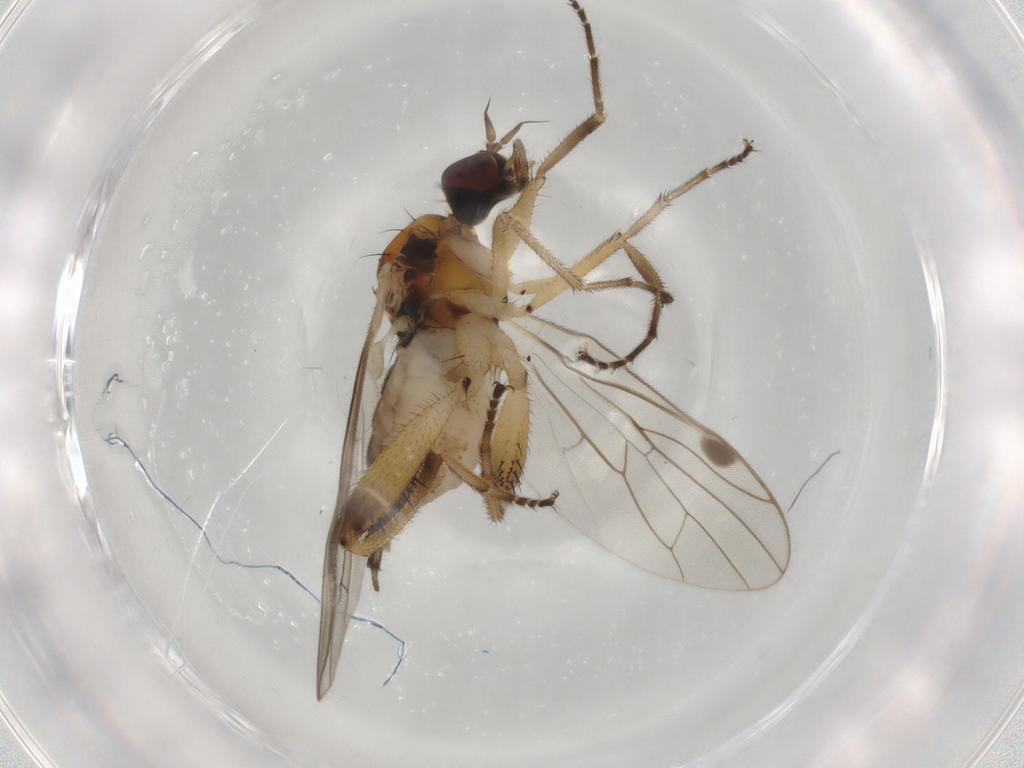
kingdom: Animalia
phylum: Arthropoda
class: Insecta
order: Diptera
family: Hybotidae
